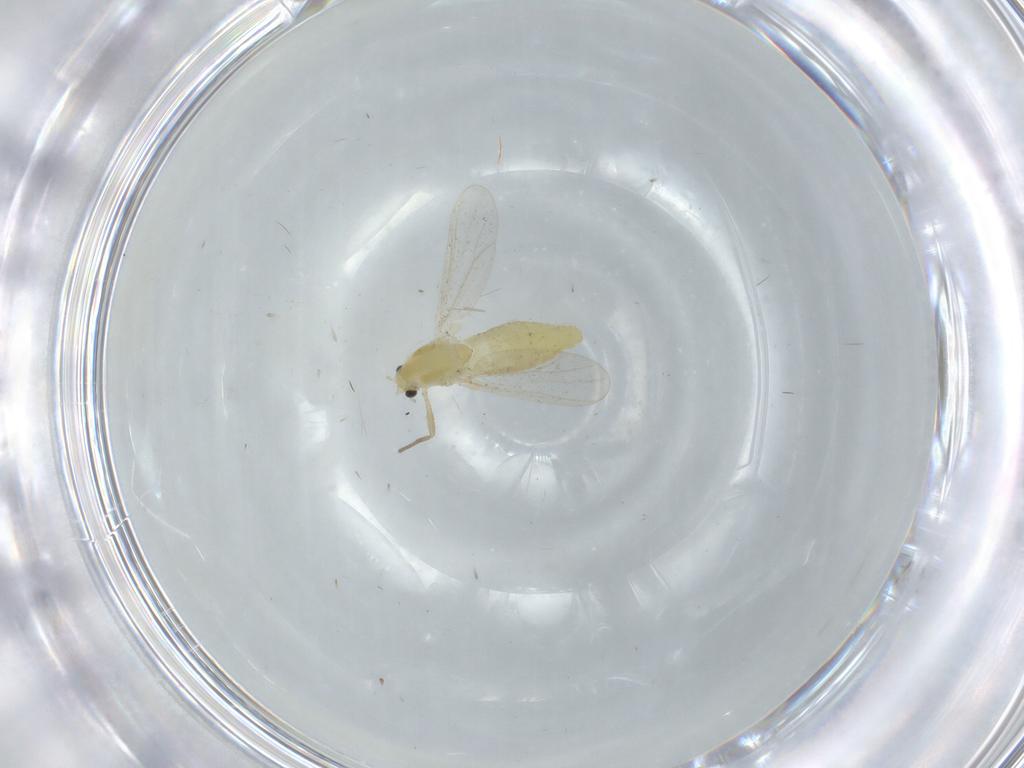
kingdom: Animalia
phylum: Arthropoda
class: Insecta
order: Diptera
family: Chironomidae
